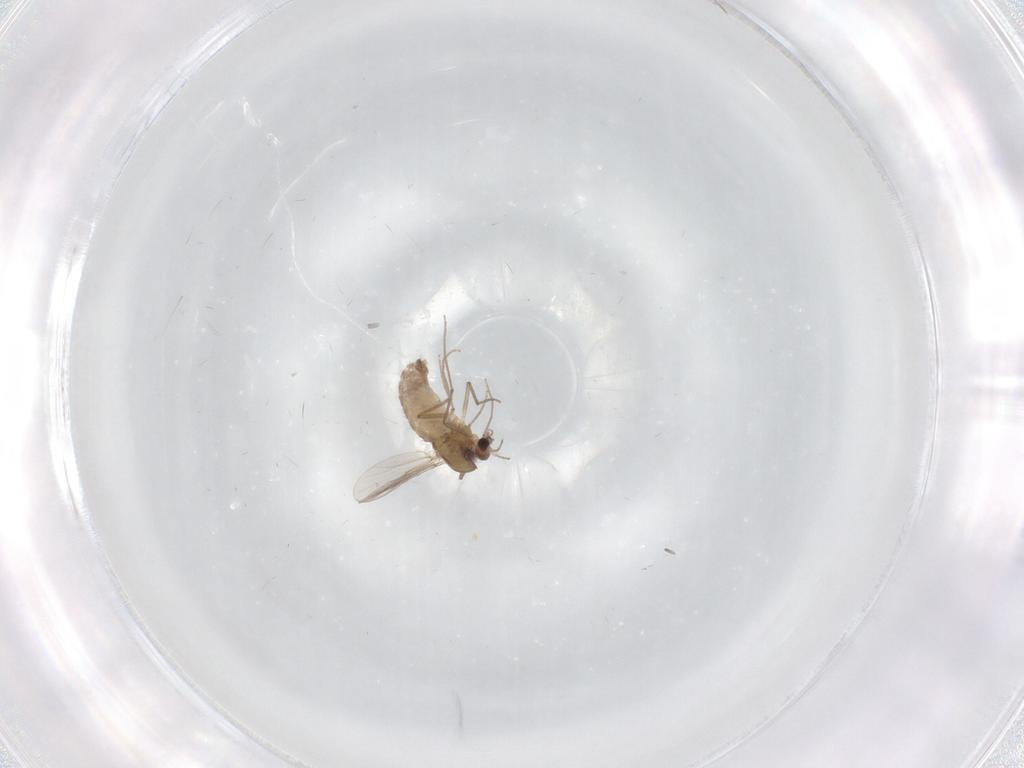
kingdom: Animalia
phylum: Arthropoda
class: Insecta
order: Diptera
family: Chironomidae
